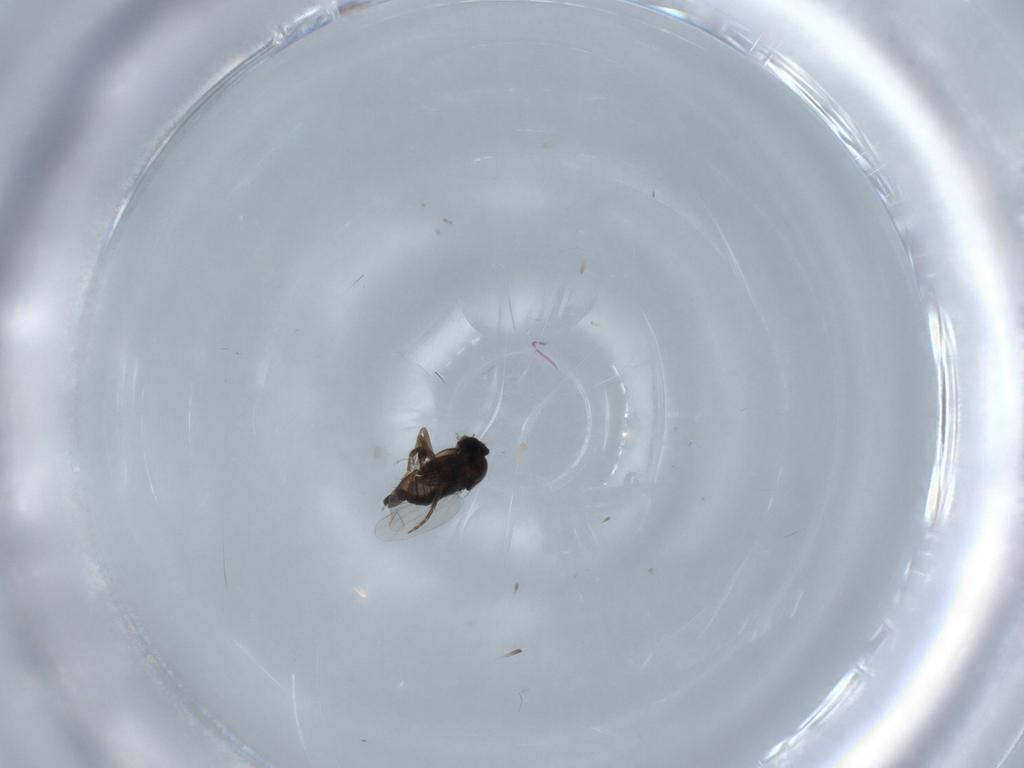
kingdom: Animalia
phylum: Arthropoda
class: Insecta
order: Diptera
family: Phoridae
